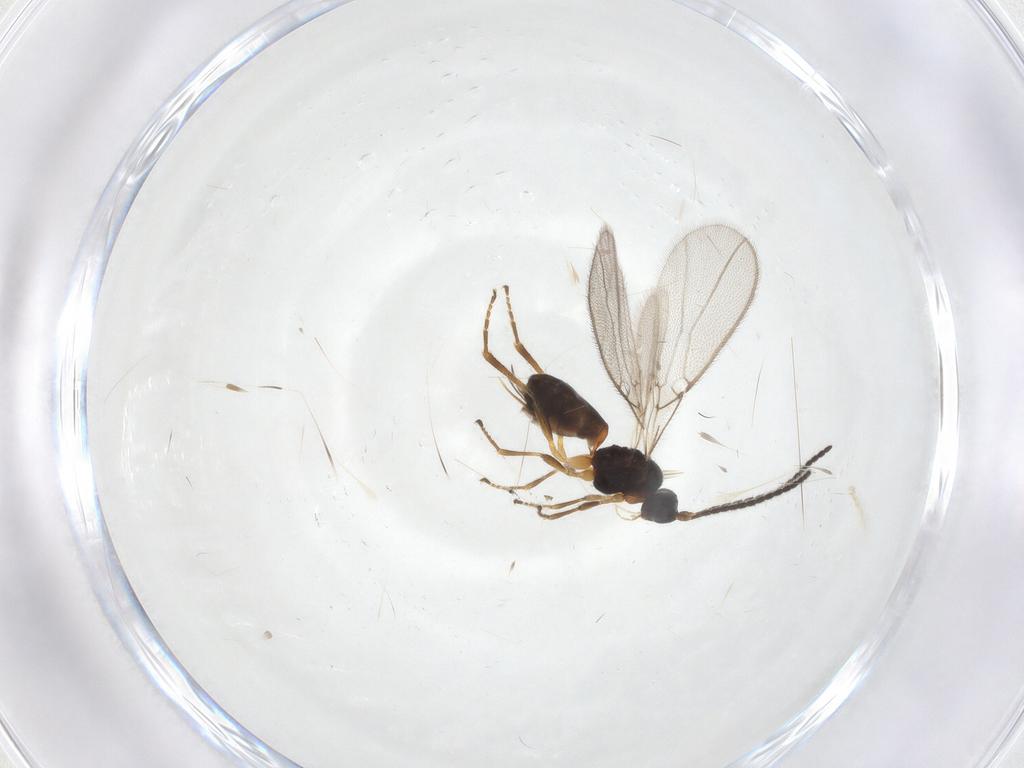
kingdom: Animalia
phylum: Arthropoda
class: Insecta
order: Hymenoptera
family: Braconidae
